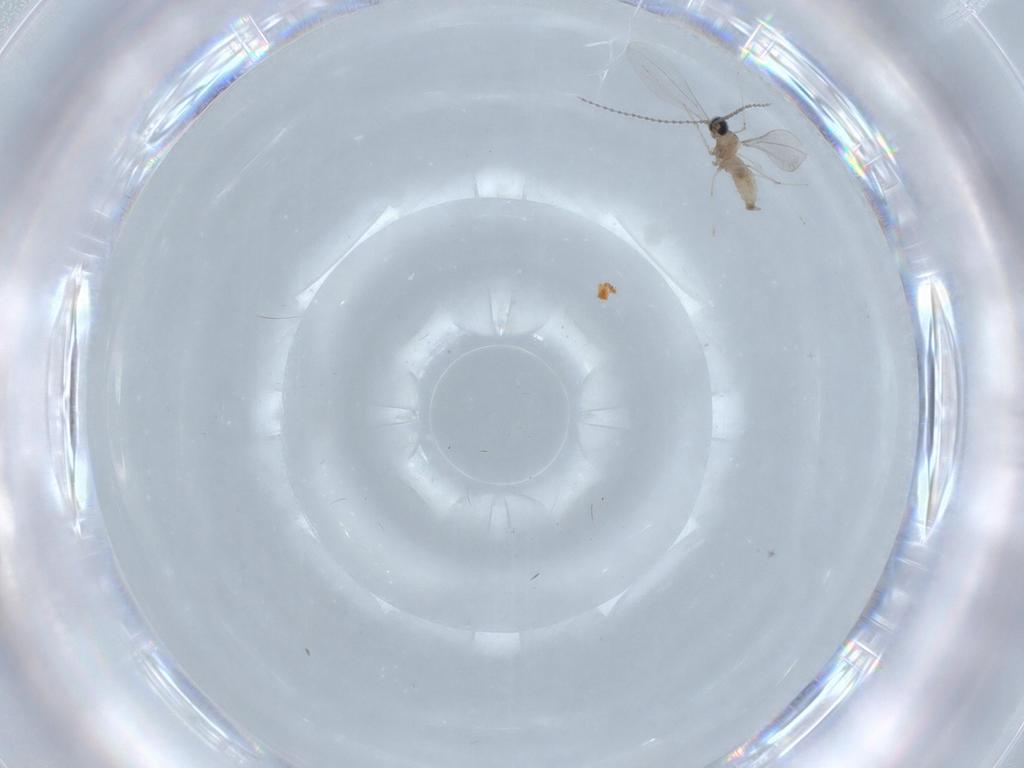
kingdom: Animalia
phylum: Arthropoda
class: Insecta
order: Diptera
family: Cecidomyiidae
